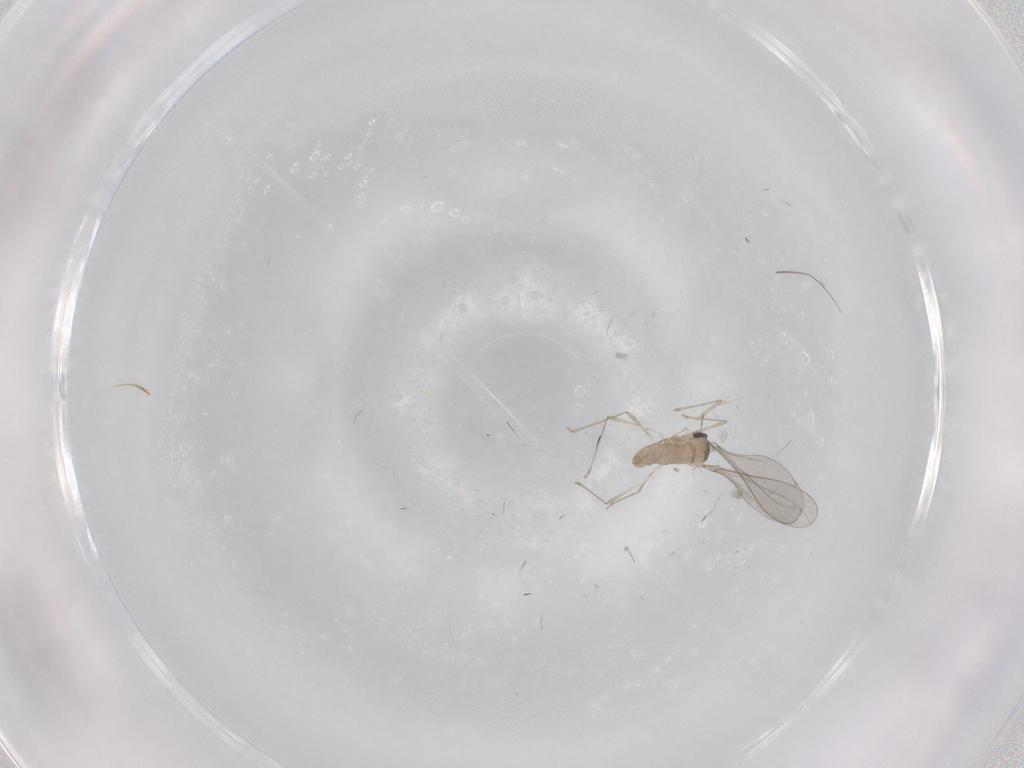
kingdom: Animalia
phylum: Arthropoda
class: Insecta
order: Diptera
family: Cecidomyiidae
